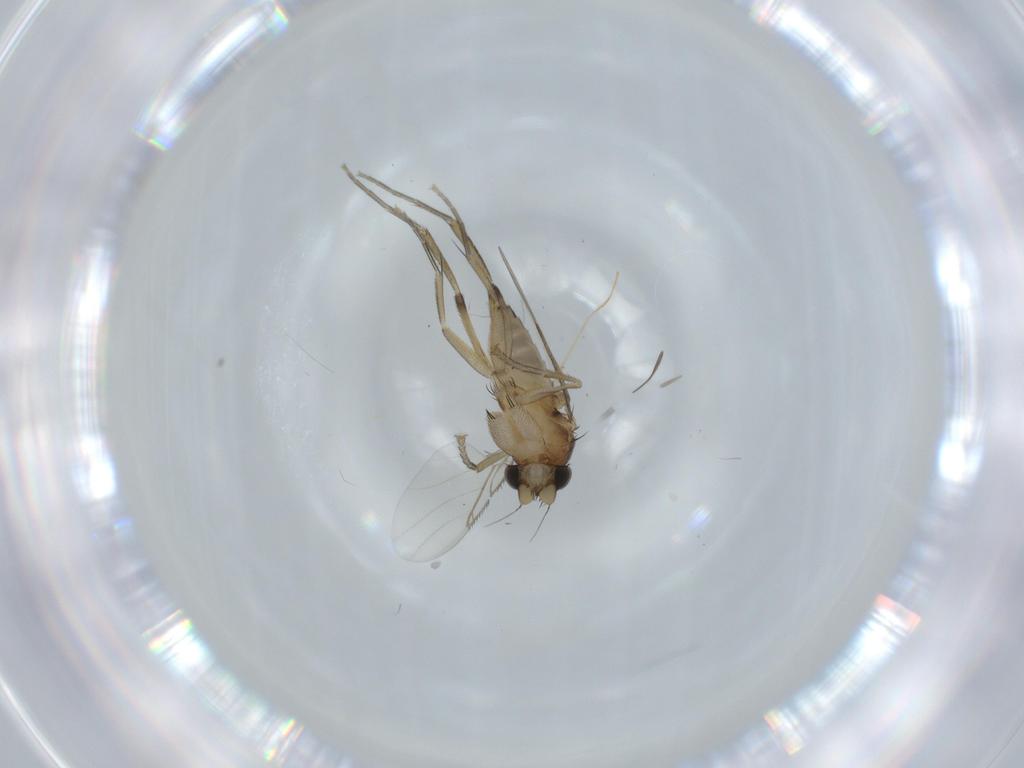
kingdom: Animalia
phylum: Arthropoda
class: Insecta
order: Diptera
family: Phoridae
